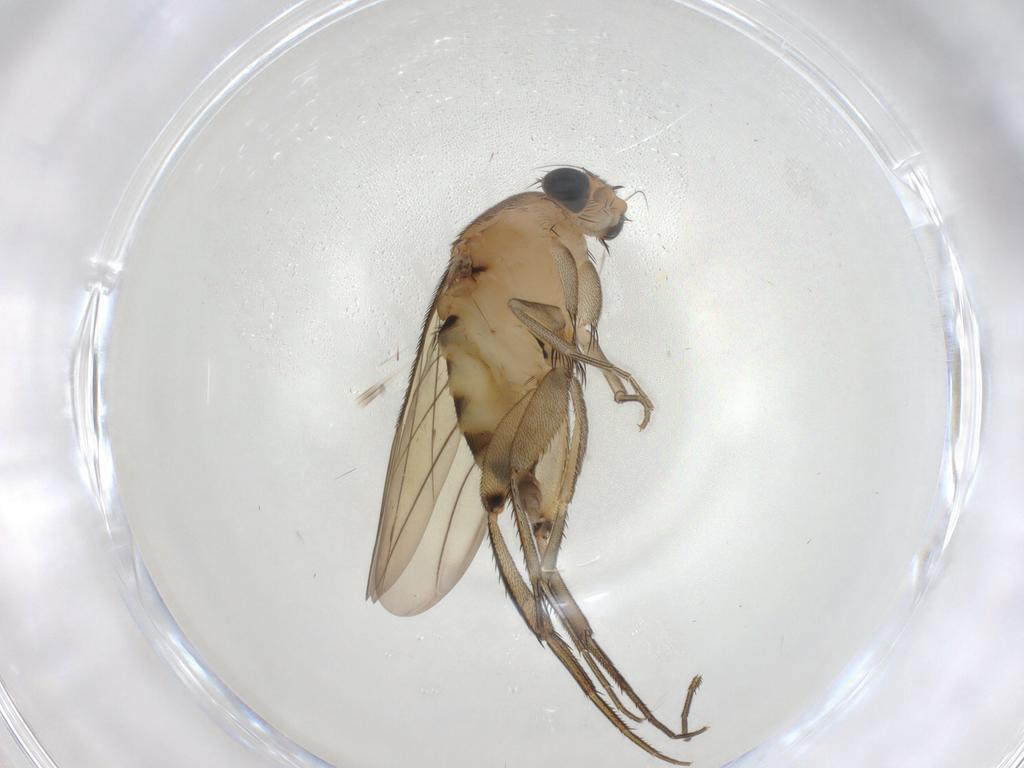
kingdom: Animalia
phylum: Arthropoda
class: Insecta
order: Diptera
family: Phoridae
